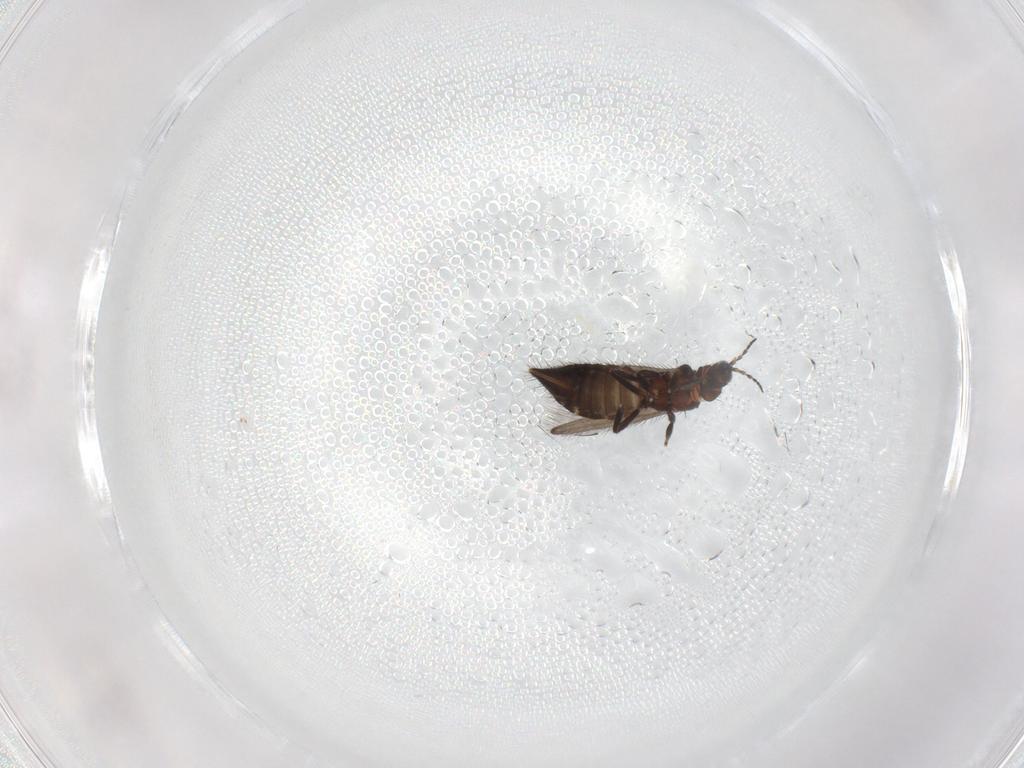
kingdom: Animalia
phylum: Arthropoda
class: Insecta
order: Thysanoptera
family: Melanthripidae
